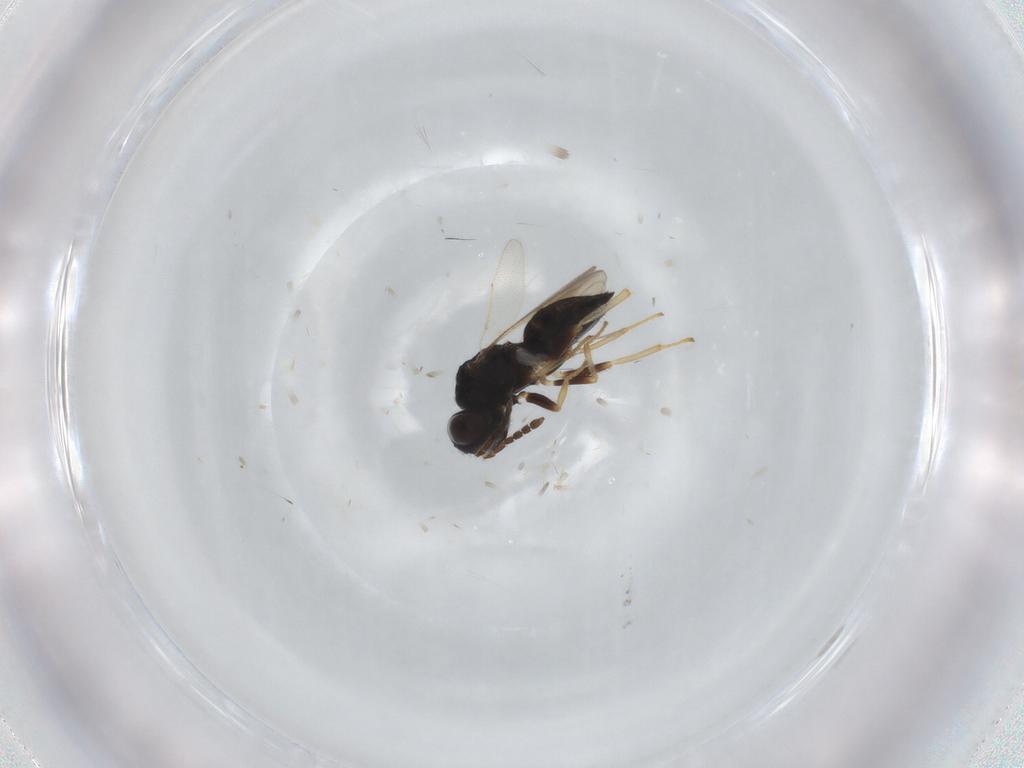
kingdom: Animalia
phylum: Arthropoda
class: Insecta
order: Hymenoptera
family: Eulophidae
